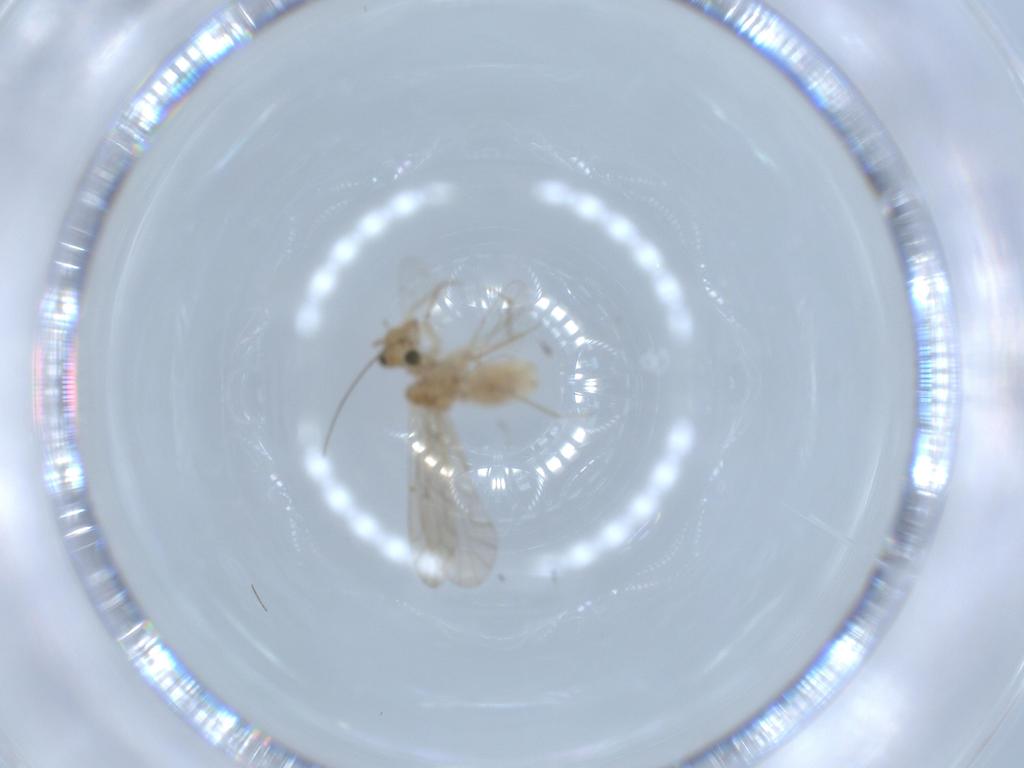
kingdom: Animalia
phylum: Arthropoda
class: Insecta
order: Psocodea
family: Lachesillidae
